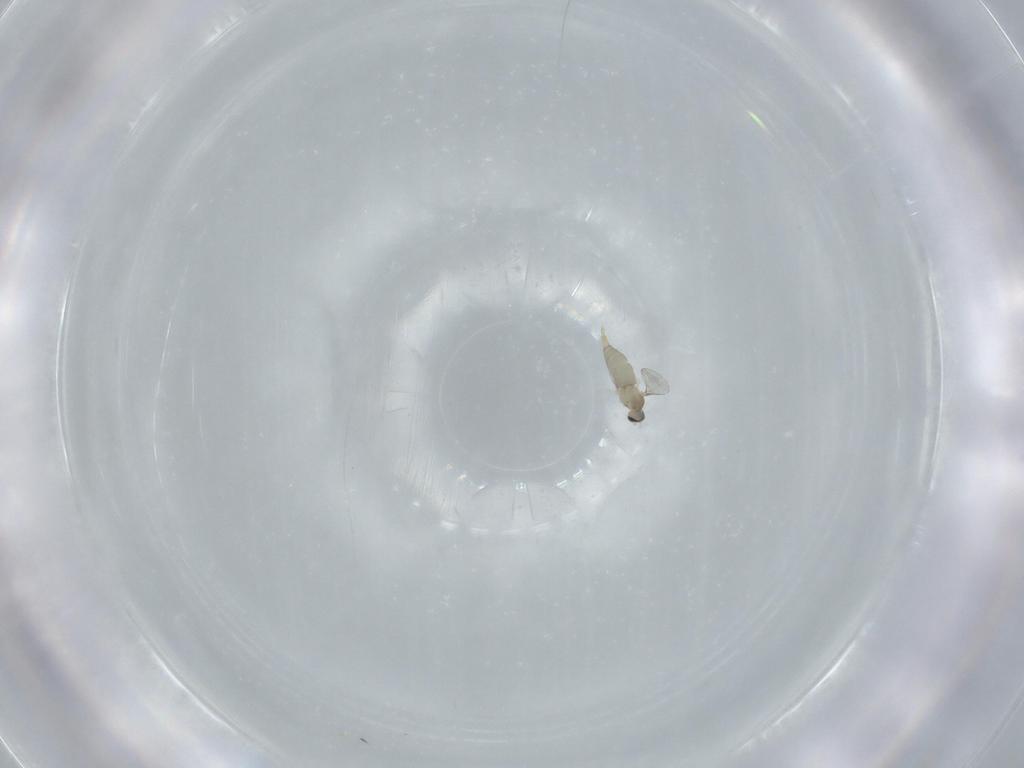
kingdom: Animalia
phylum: Arthropoda
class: Insecta
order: Diptera
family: Cecidomyiidae
